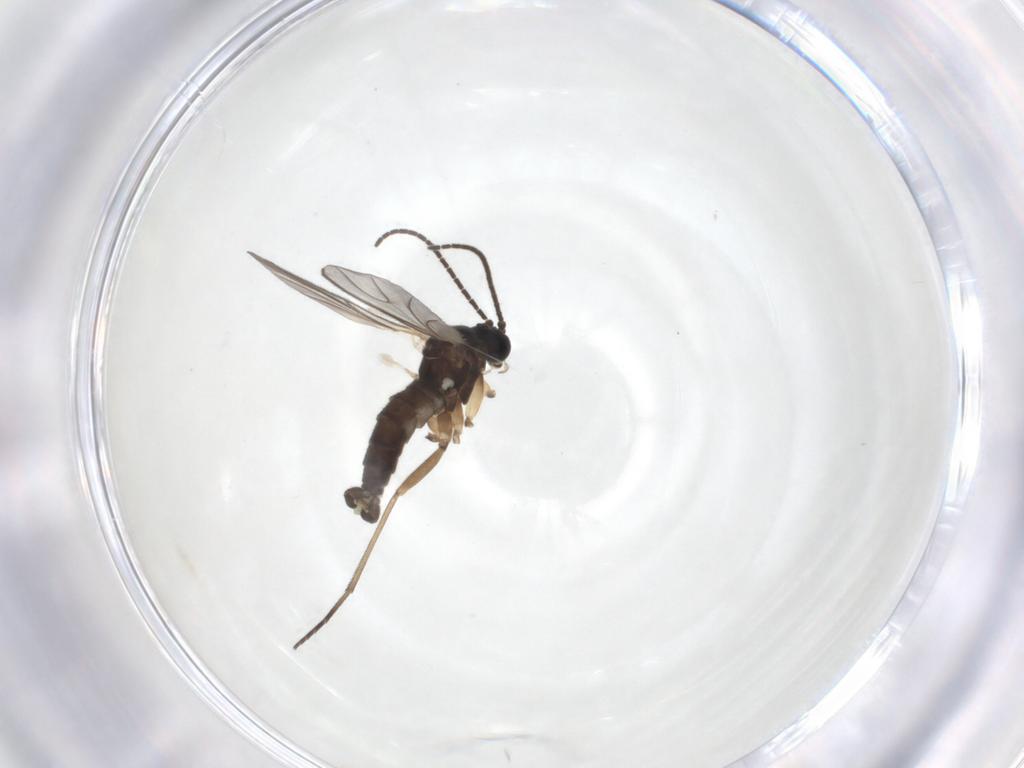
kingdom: Animalia
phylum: Arthropoda
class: Insecta
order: Diptera
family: Sciaridae
